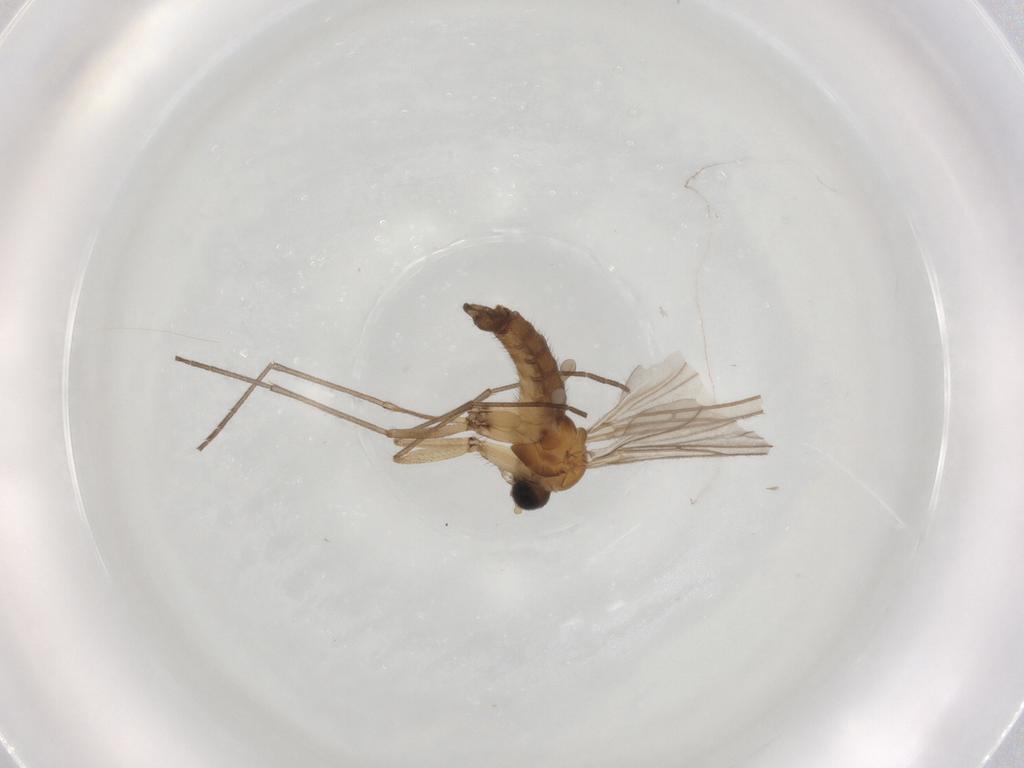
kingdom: Animalia
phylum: Arthropoda
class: Insecta
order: Diptera
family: Sciaridae
